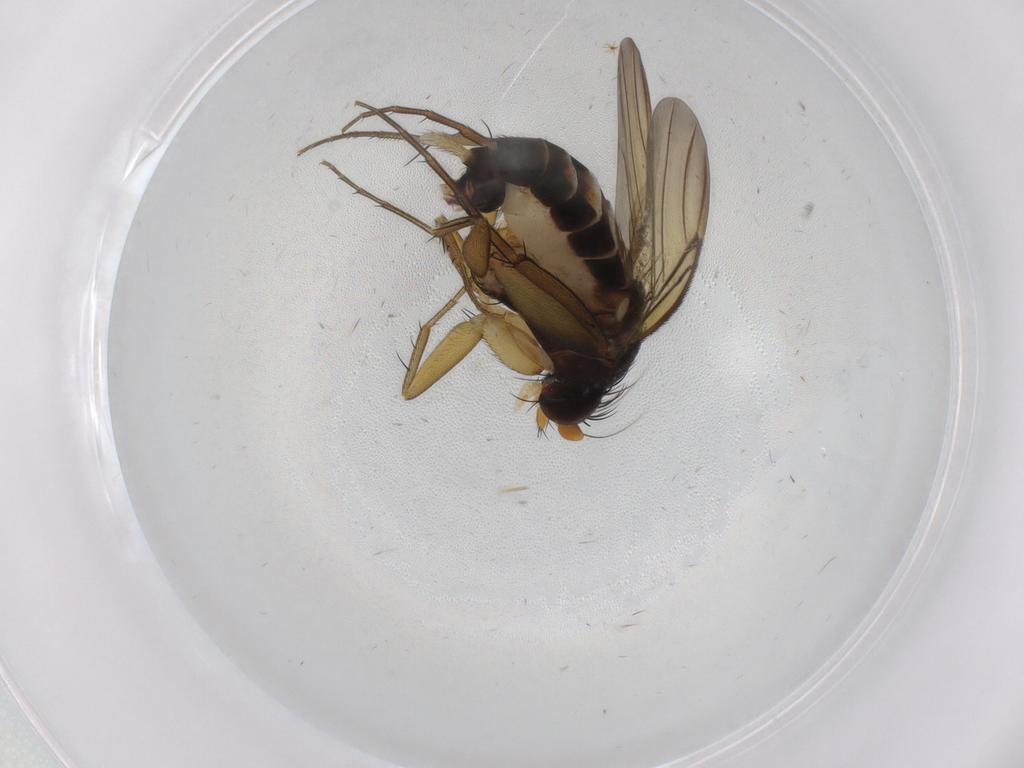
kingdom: Animalia
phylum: Arthropoda
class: Insecta
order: Diptera
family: Phoridae
